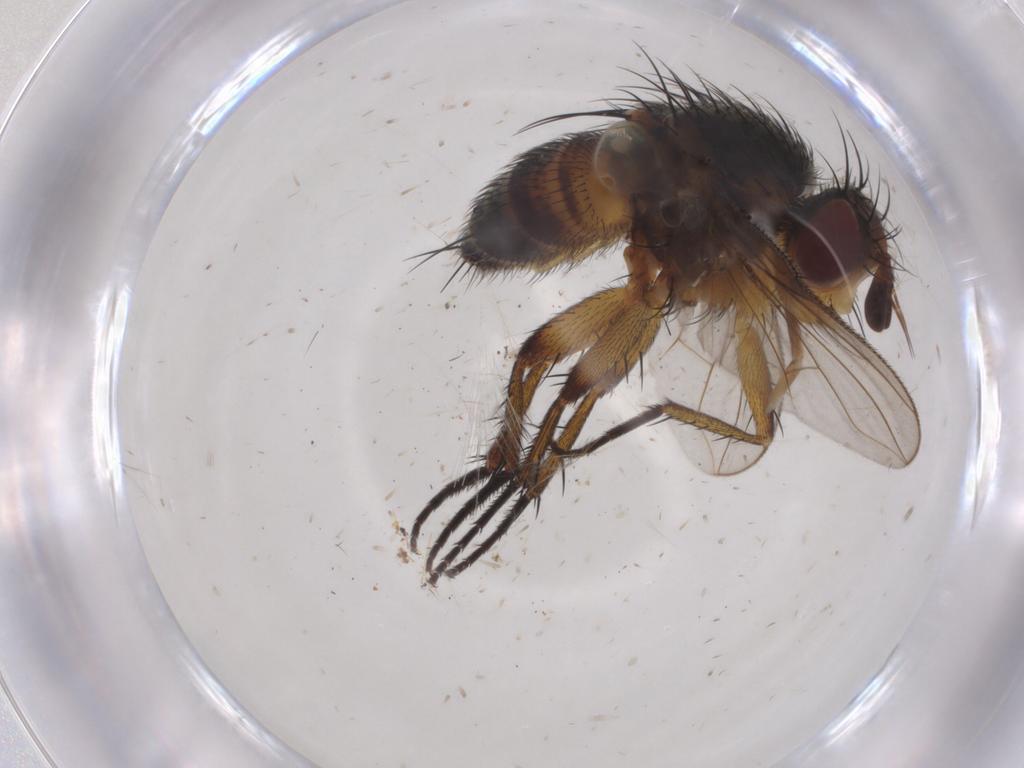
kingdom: Animalia
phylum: Arthropoda
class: Insecta
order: Diptera
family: Tachinidae
